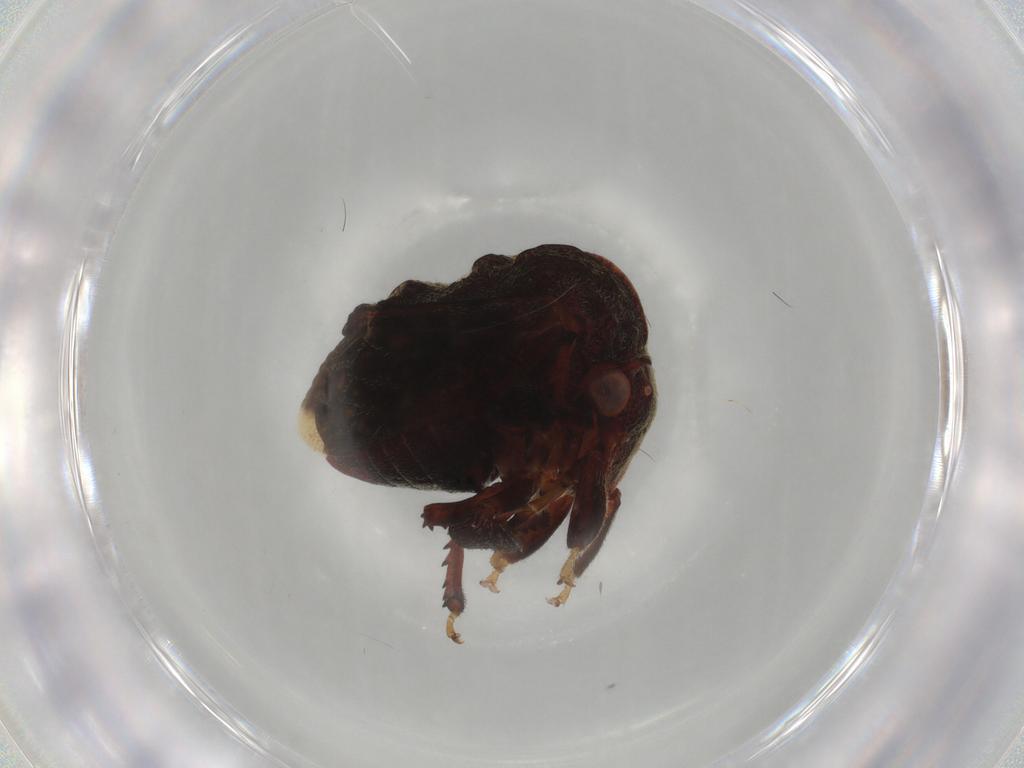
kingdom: Animalia
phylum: Arthropoda
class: Insecta
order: Hemiptera
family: Membracidae
